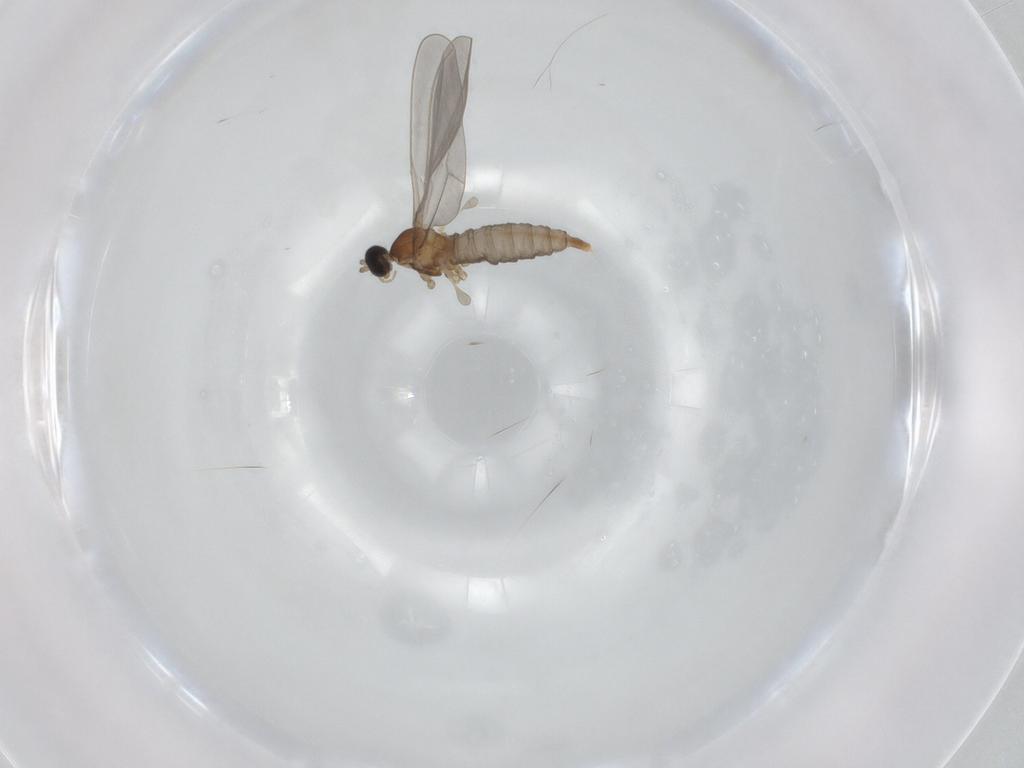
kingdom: Animalia
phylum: Arthropoda
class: Insecta
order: Diptera
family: Cecidomyiidae
